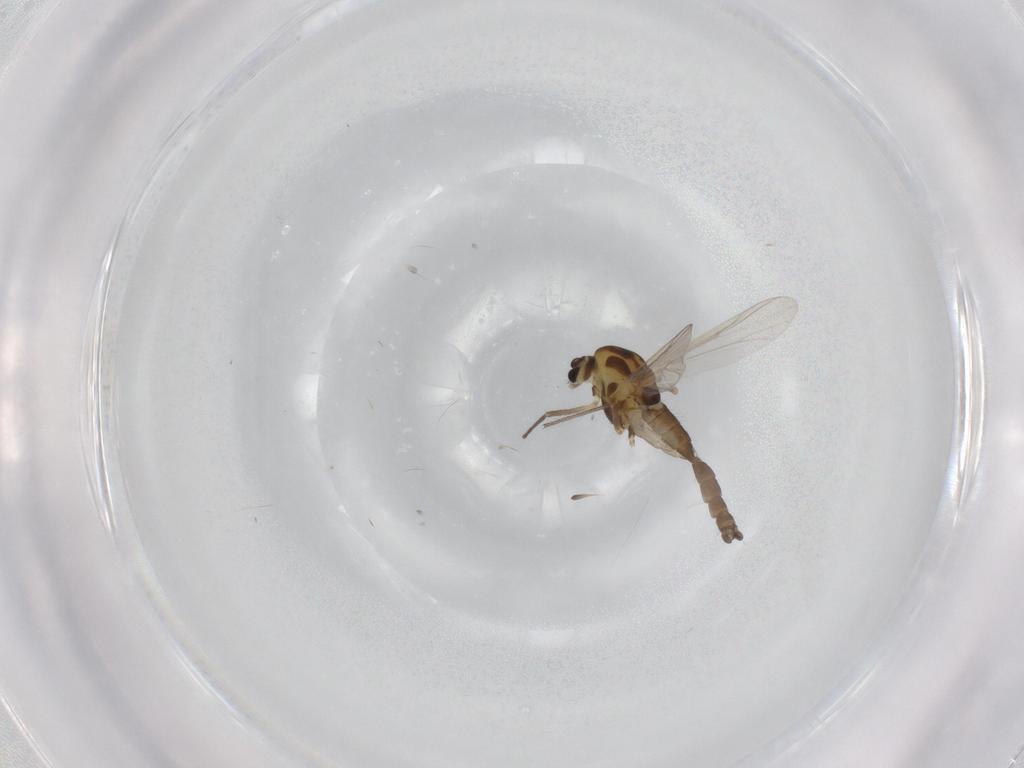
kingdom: Animalia
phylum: Arthropoda
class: Insecta
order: Diptera
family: Chironomidae
